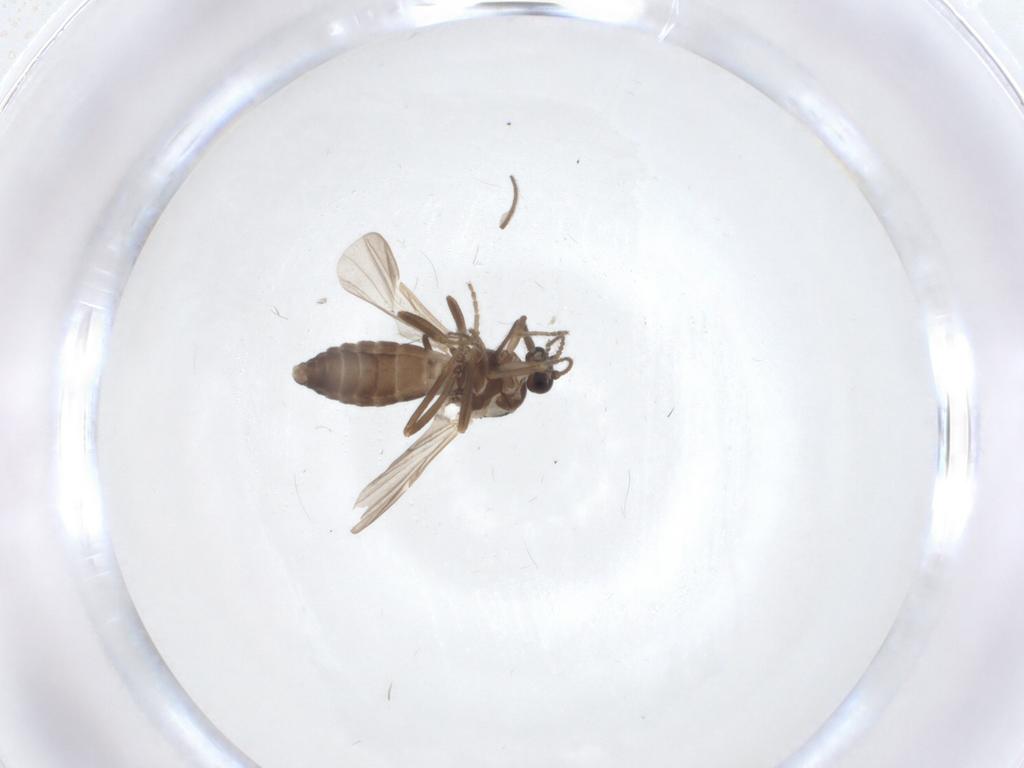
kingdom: Animalia
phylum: Arthropoda
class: Insecta
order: Diptera
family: Ceratopogonidae
